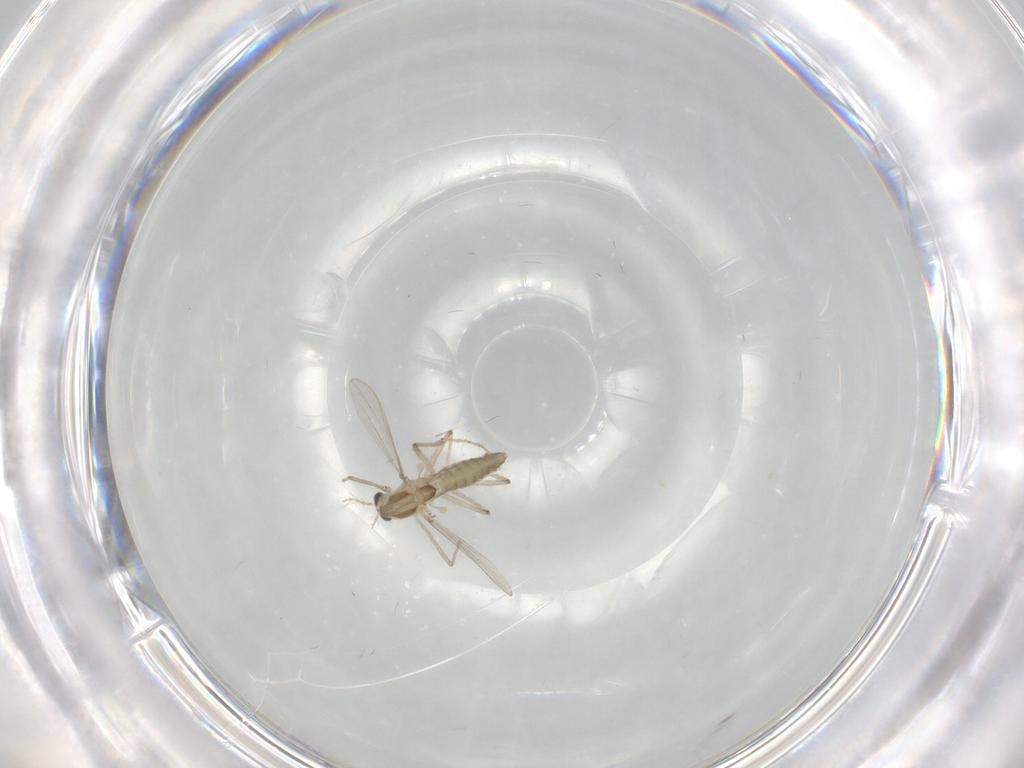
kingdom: Animalia
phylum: Arthropoda
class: Insecta
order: Diptera
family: Chironomidae
